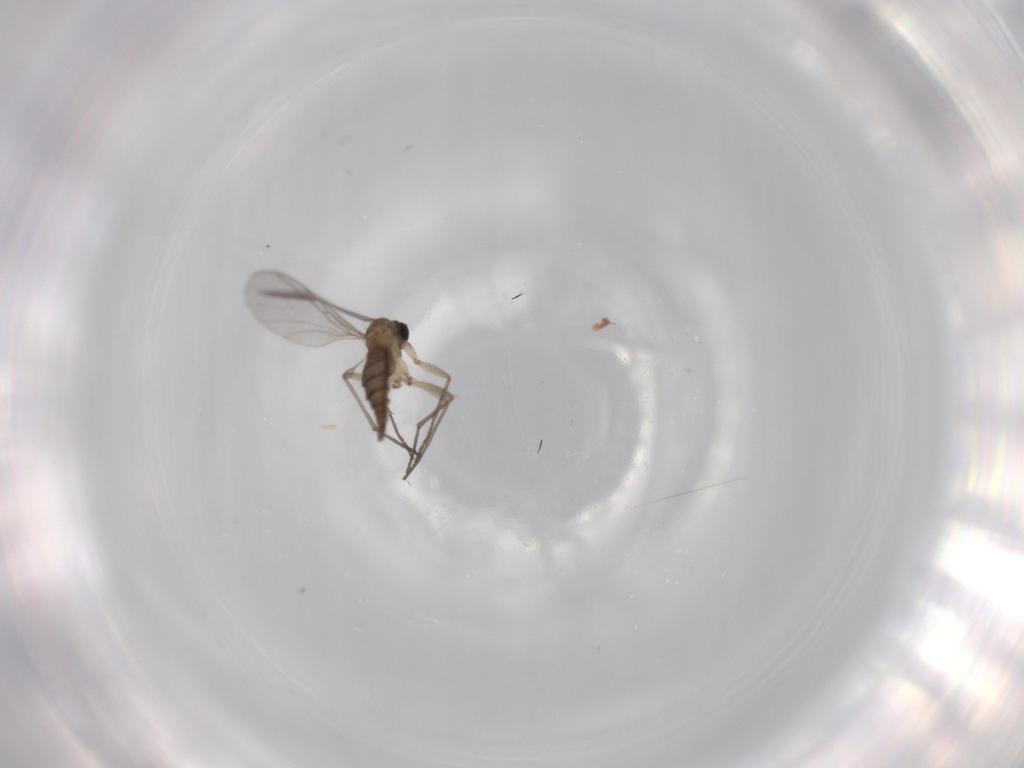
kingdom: Animalia
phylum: Arthropoda
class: Insecta
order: Diptera
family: Sciaridae
